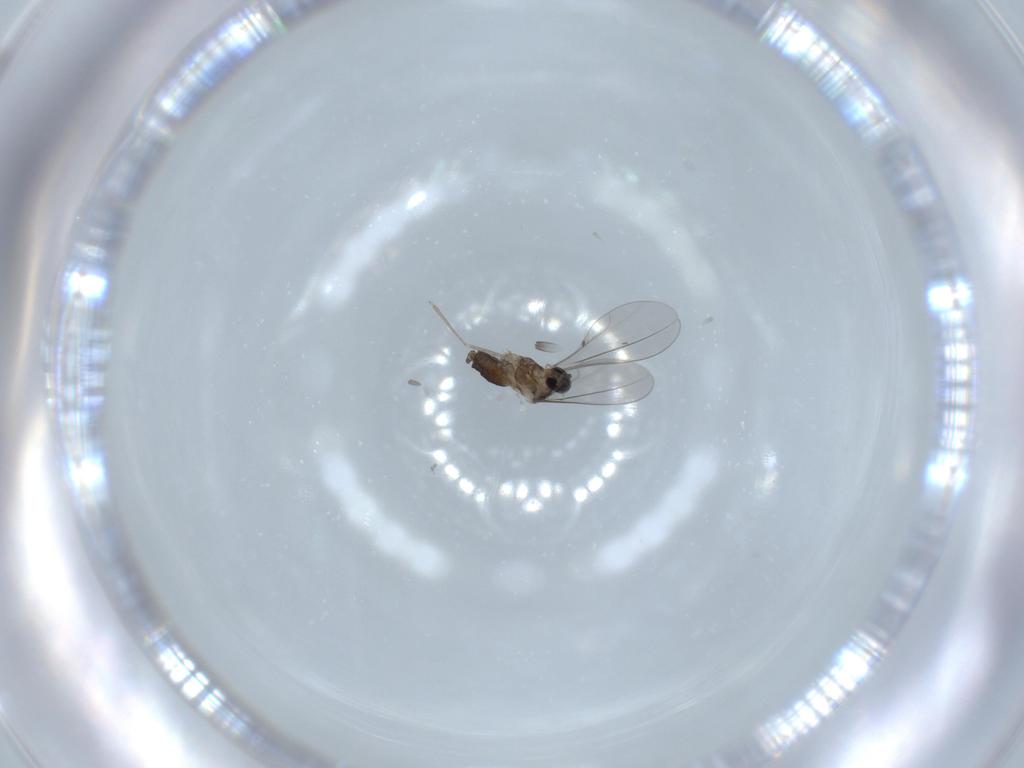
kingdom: Animalia
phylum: Arthropoda
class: Insecta
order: Diptera
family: Cecidomyiidae
